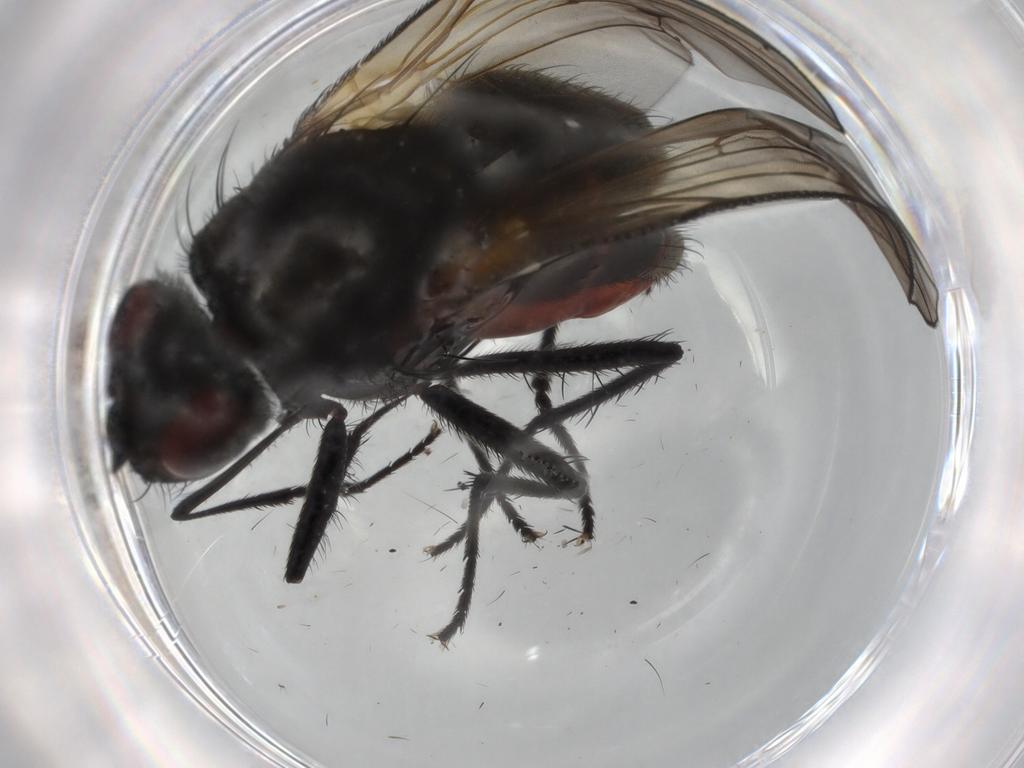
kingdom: Animalia
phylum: Arthropoda
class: Insecta
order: Diptera
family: Anthomyiidae
